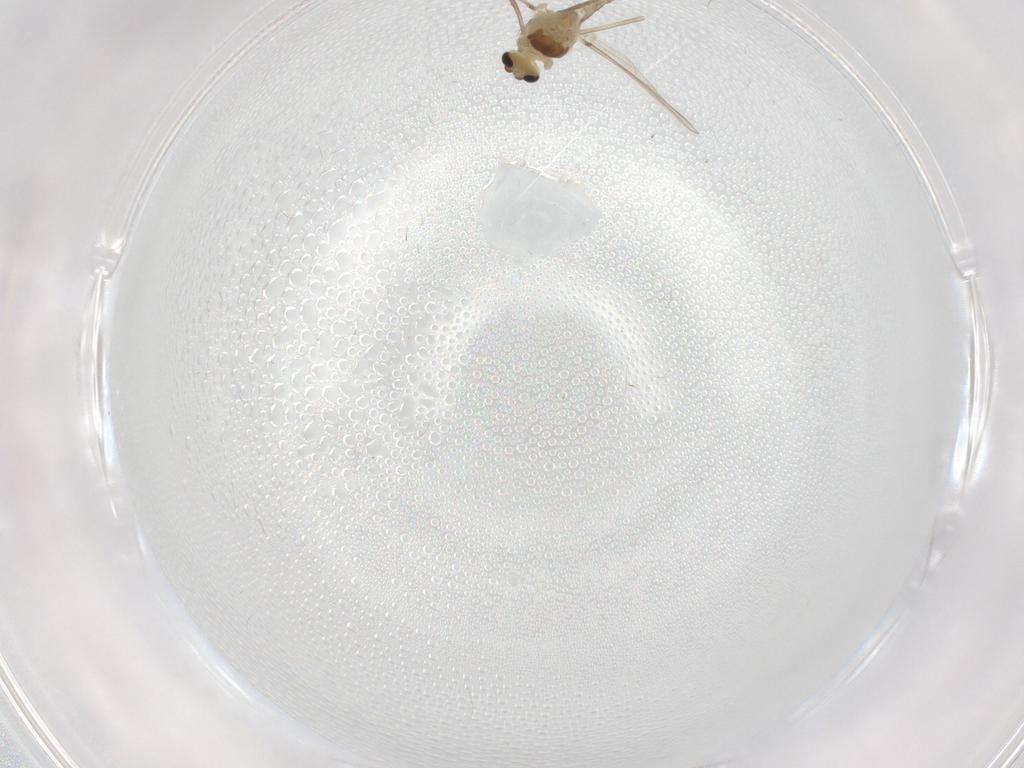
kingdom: Animalia
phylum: Arthropoda
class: Insecta
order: Diptera
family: Chironomidae
